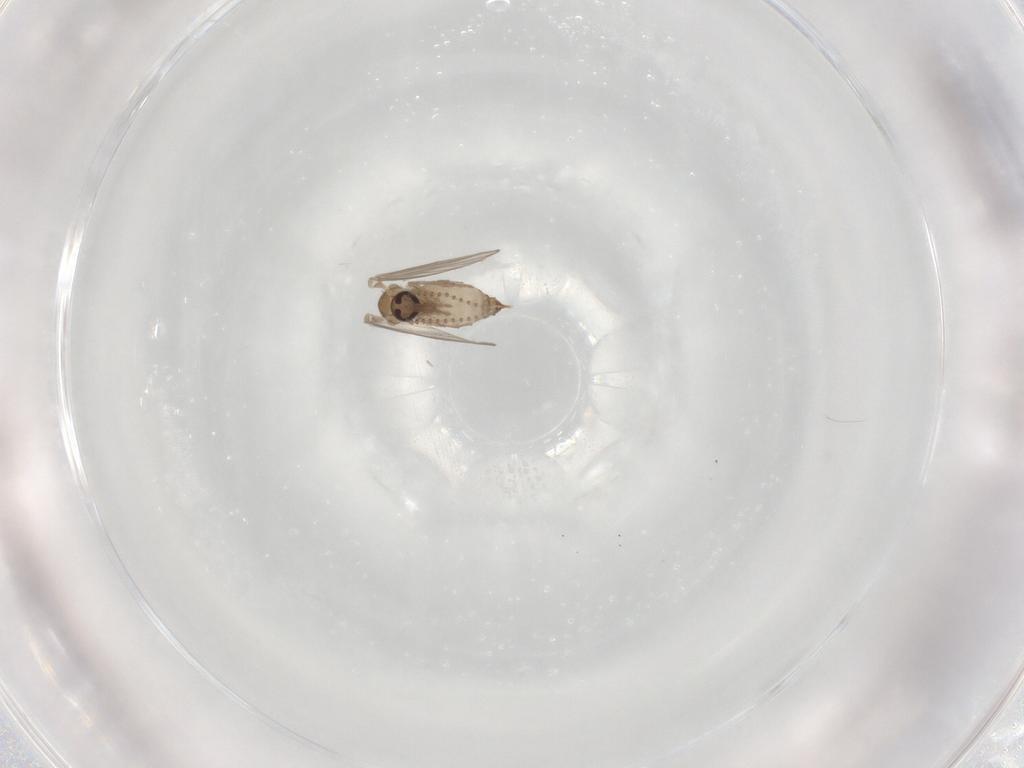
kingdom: Animalia
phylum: Arthropoda
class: Insecta
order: Diptera
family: Psychodidae
